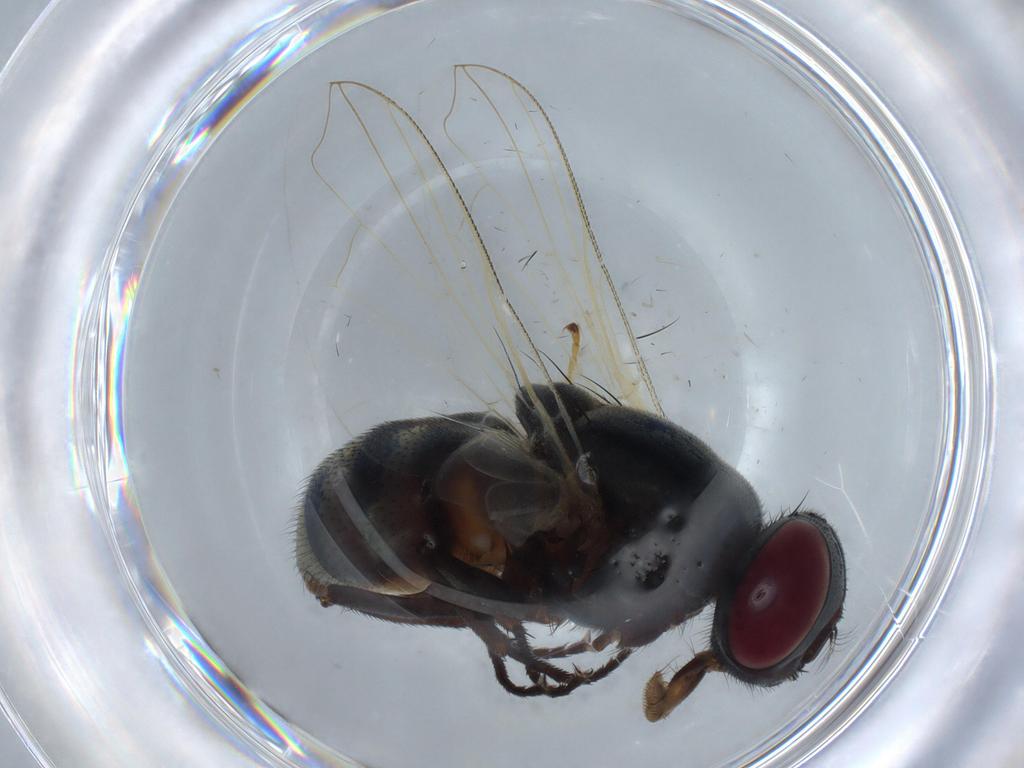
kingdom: Animalia
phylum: Arthropoda
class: Insecta
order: Diptera
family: Muscidae
